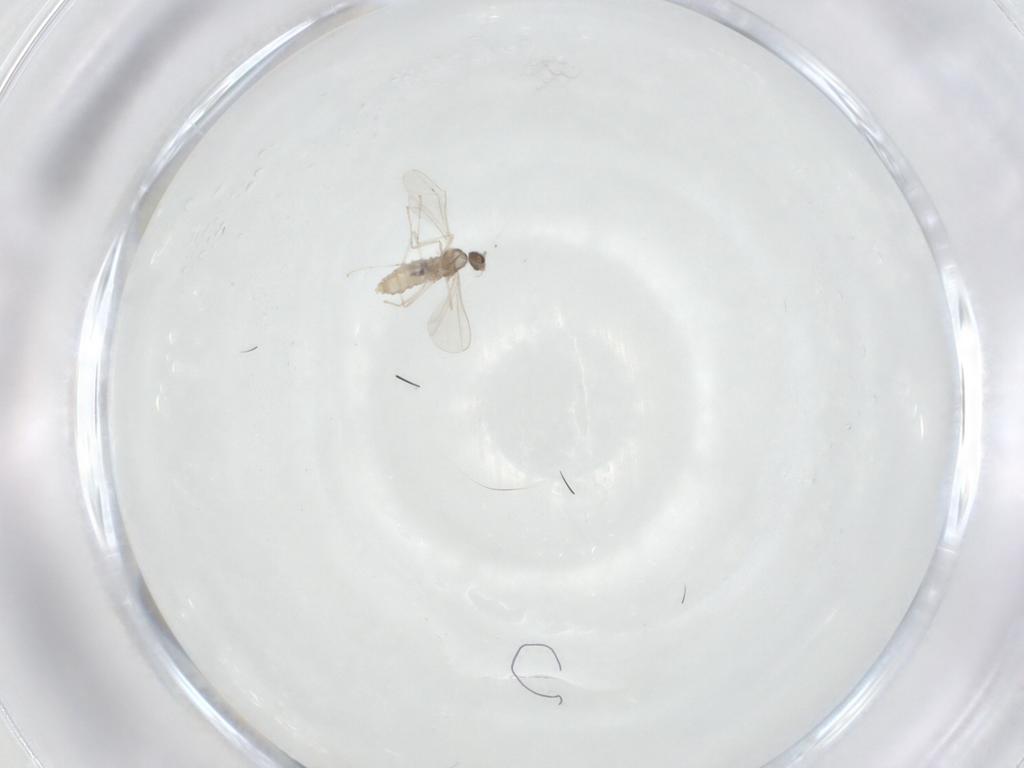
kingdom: Animalia
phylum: Arthropoda
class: Insecta
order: Diptera
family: Cecidomyiidae
